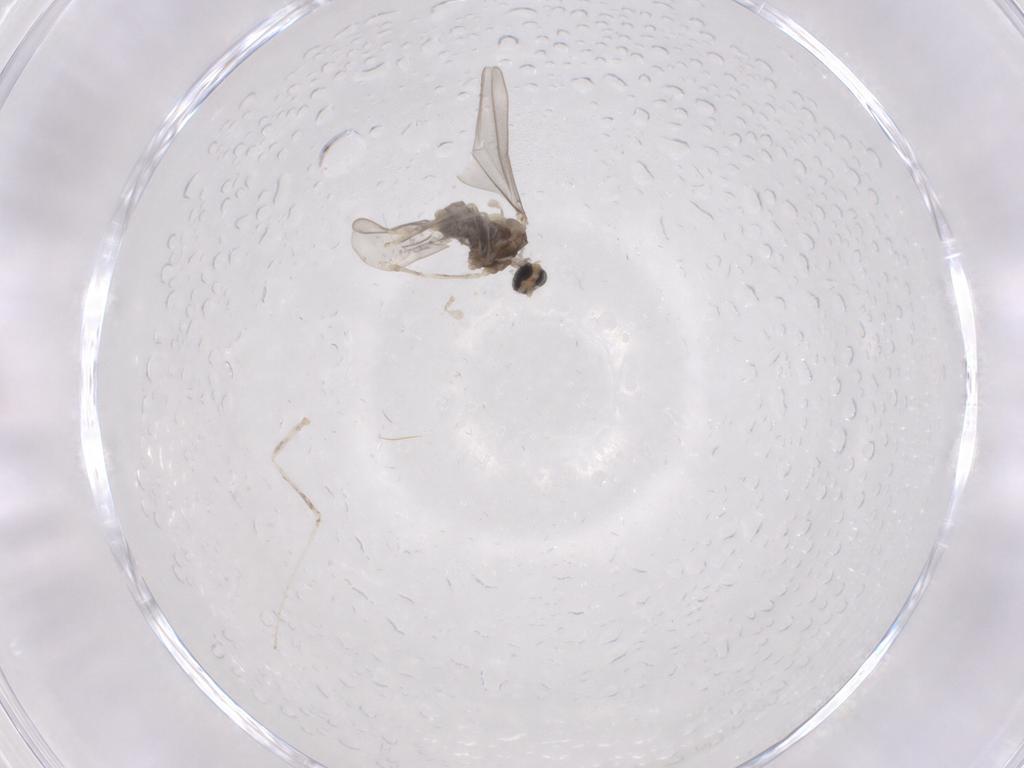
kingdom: Animalia
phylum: Arthropoda
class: Insecta
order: Diptera
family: Cecidomyiidae
